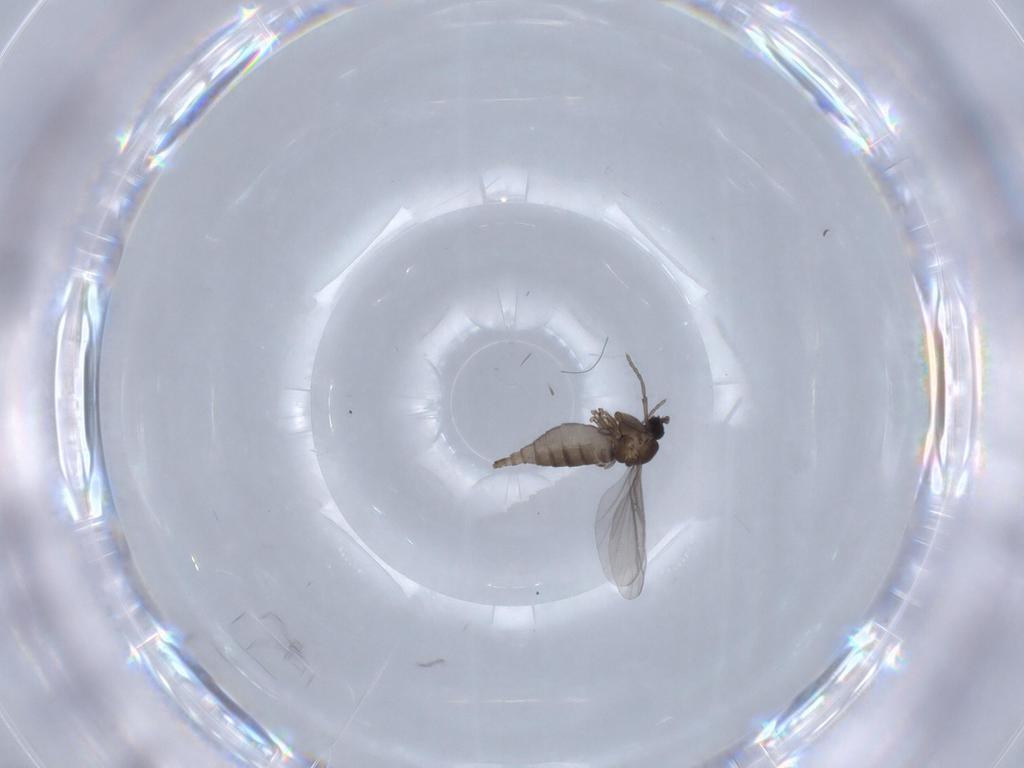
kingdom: Animalia
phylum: Arthropoda
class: Insecta
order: Diptera
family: Sciaridae
